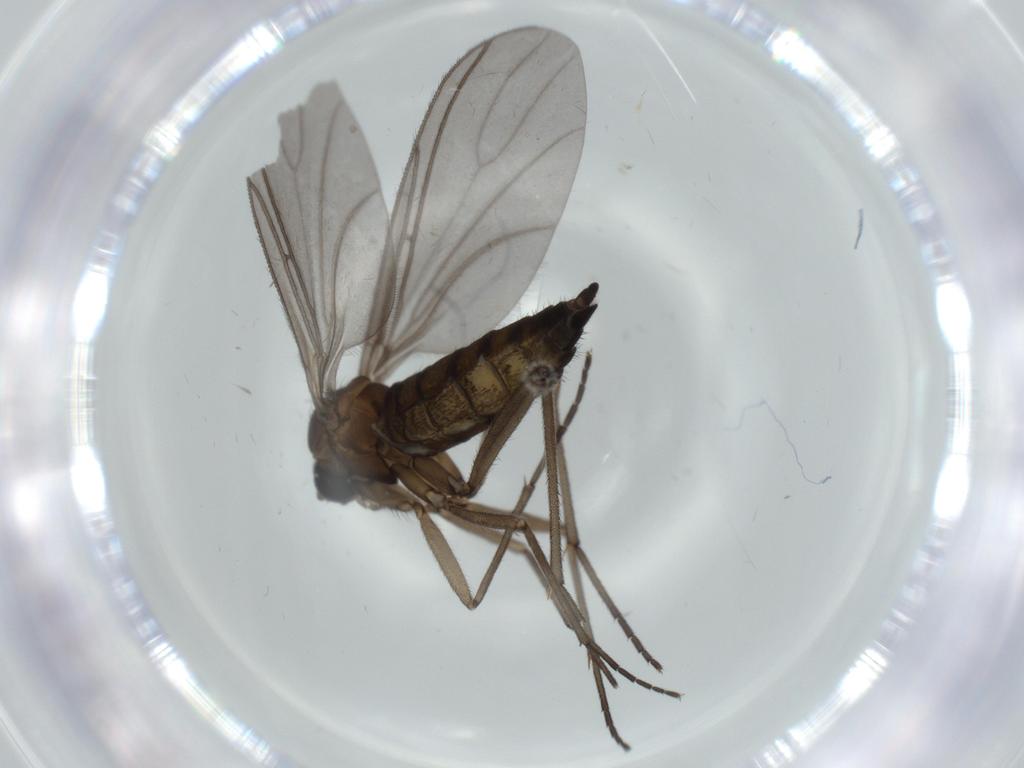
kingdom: Animalia
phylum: Arthropoda
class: Insecta
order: Diptera
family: Sciaridae
